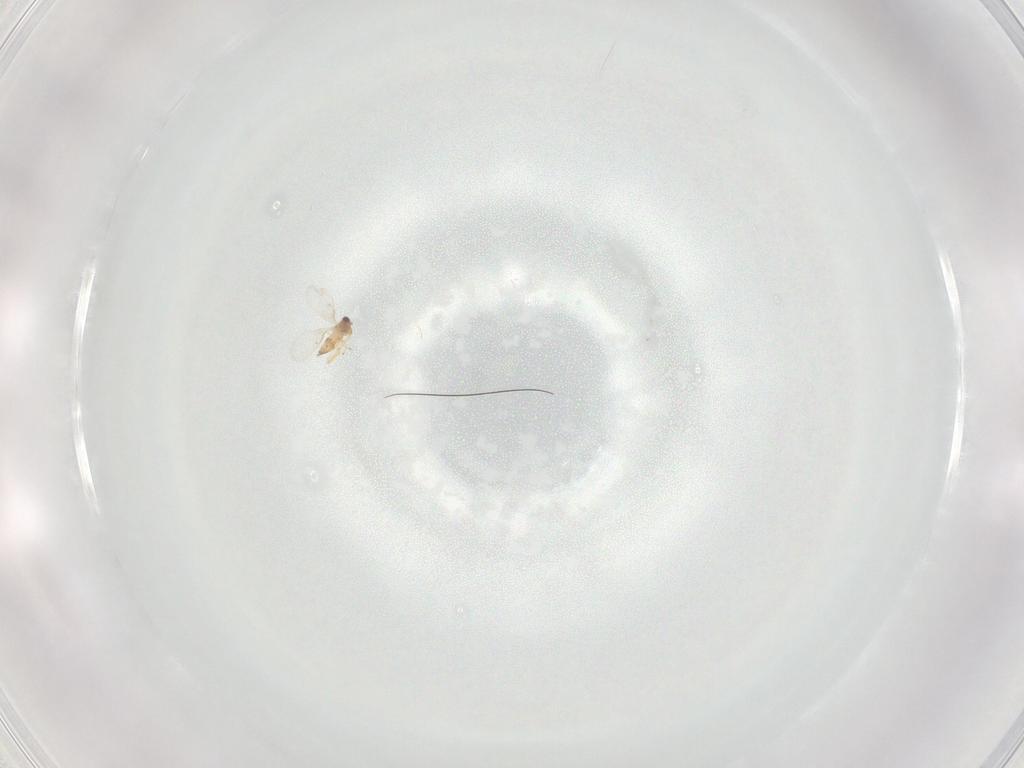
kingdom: Animalia
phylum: Arthropoda
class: Insecta
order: Hymenoptera
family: Trichogrammatidae
